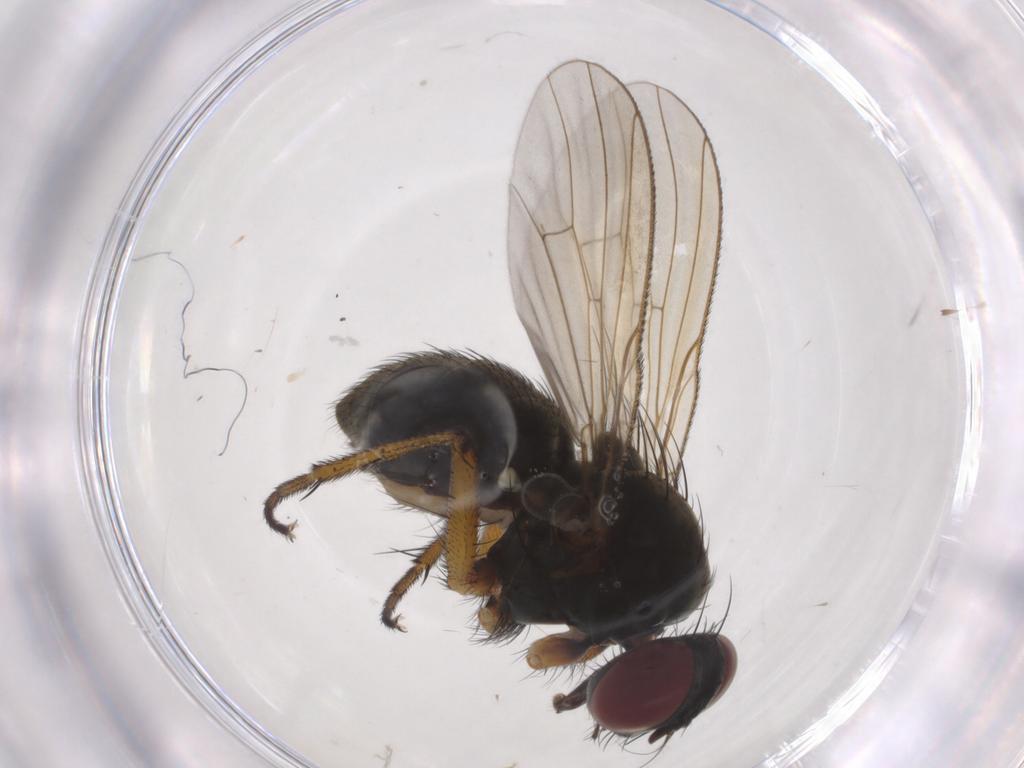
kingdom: Animalia
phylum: Arthropoda
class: Insecta
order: Diptera
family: Muscidae
